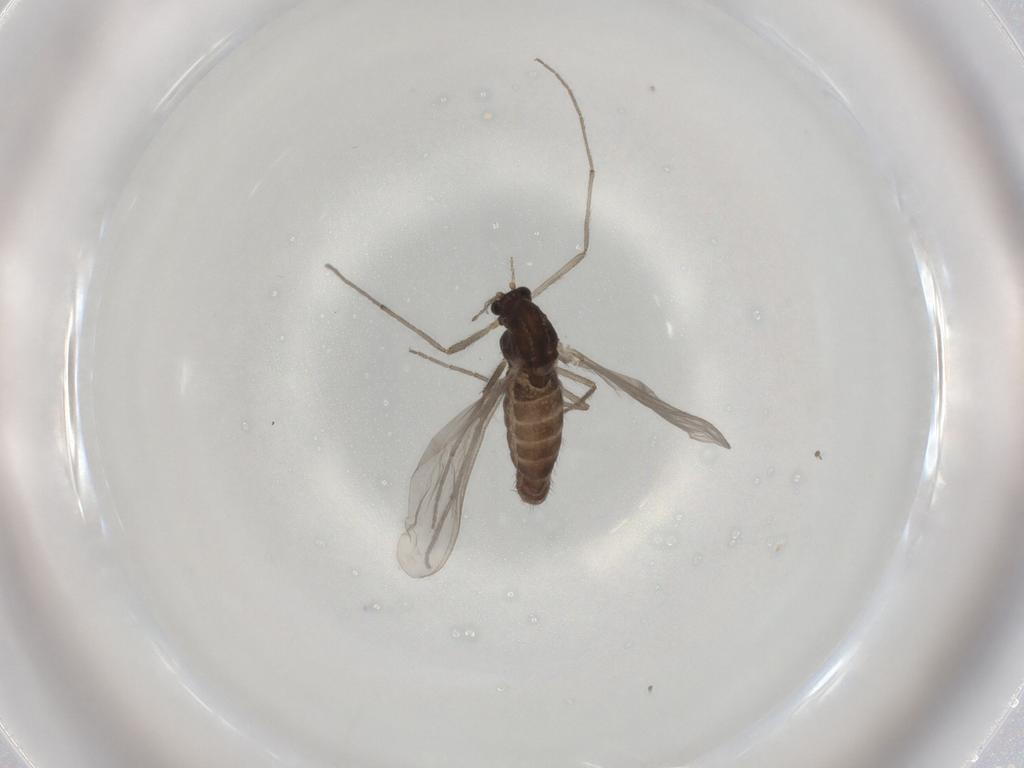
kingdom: Animalia
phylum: Arthropoda
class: Insecta
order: Diptera
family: Chironomidae
